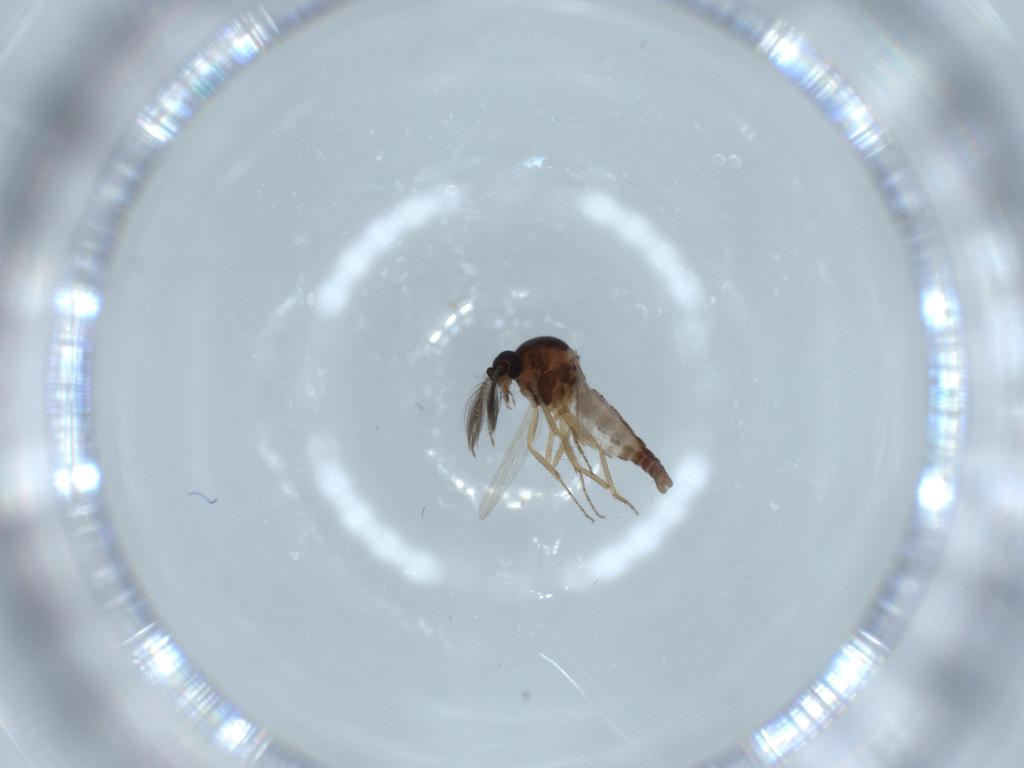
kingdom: Animalia
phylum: Arthropoda
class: Insecta
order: Diptera
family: Ceratopogonidae
